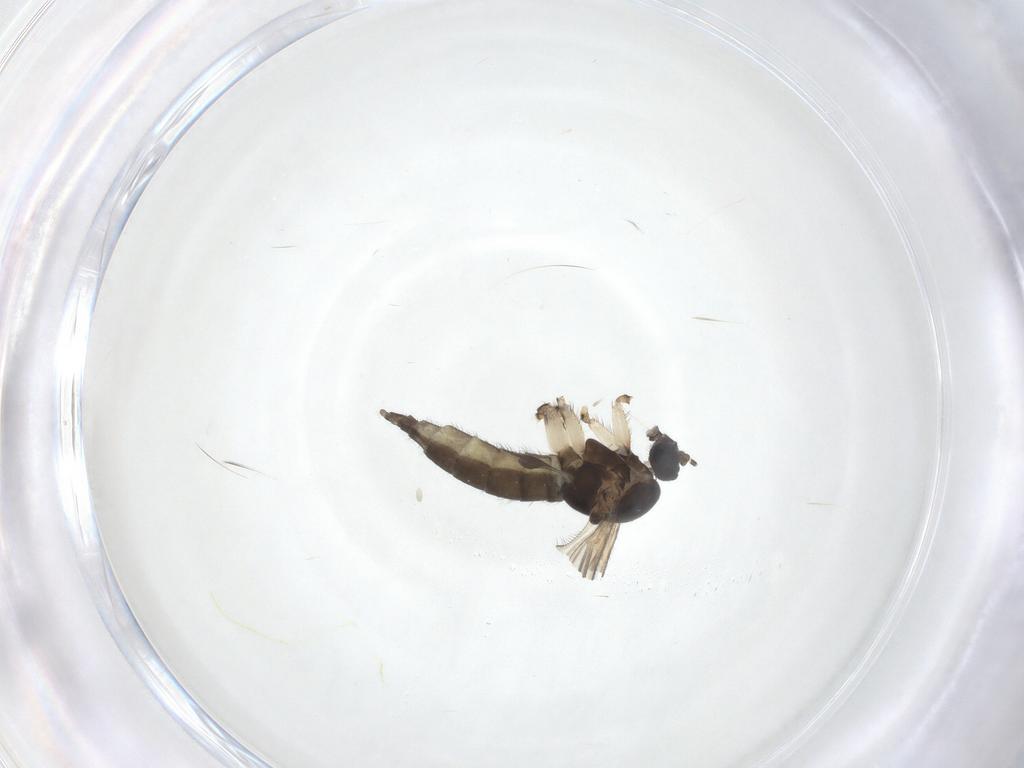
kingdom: Animalia
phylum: Arthropoda
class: Insecta
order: Diptera
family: Sciaridae
